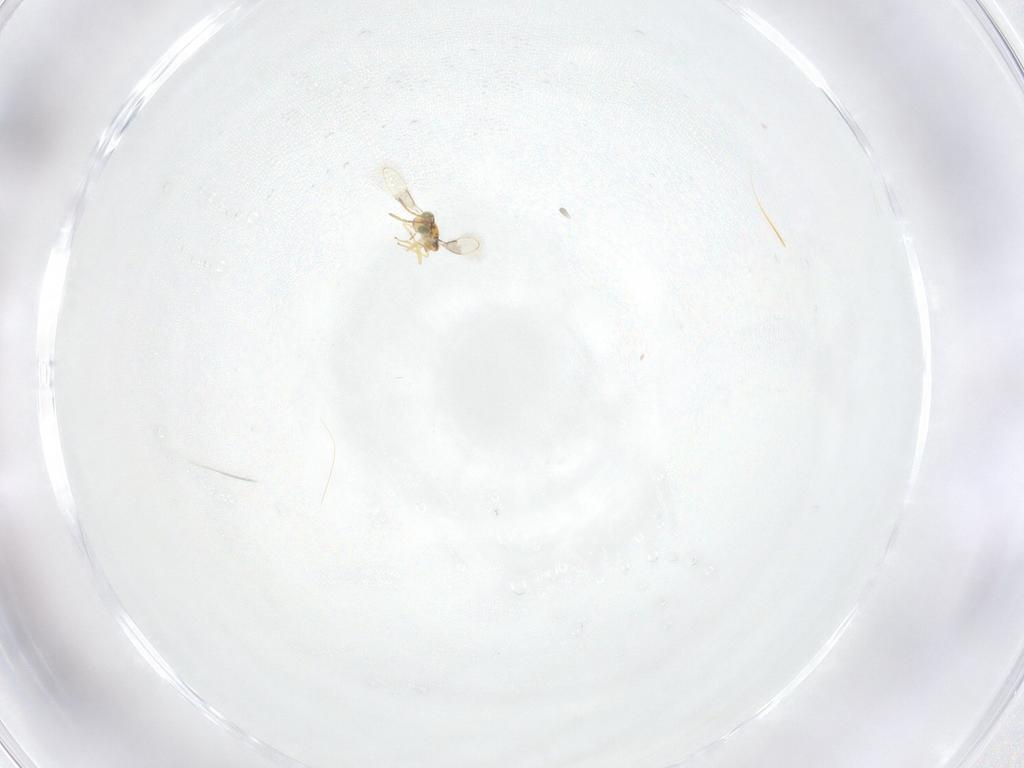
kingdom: Animalia
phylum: Arthropoda
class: Insecta
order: Hymenoptera
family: Aphelinidae
